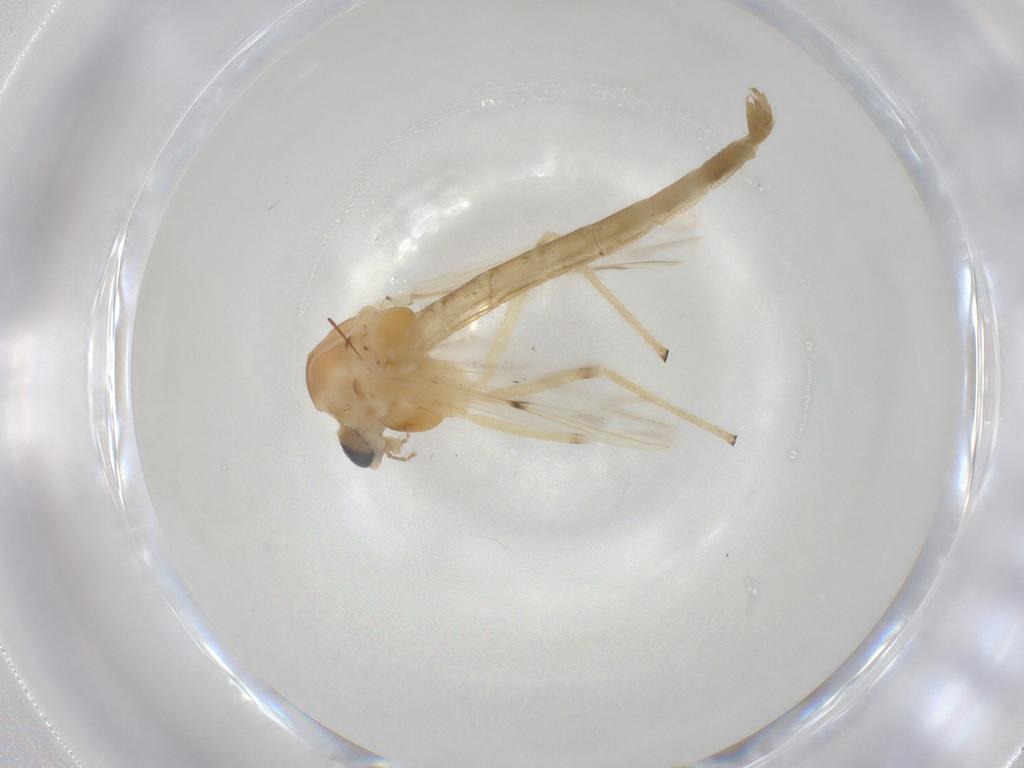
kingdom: Animalia
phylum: Arthropoda
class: Insecta
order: Diptera
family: Chironomidae
